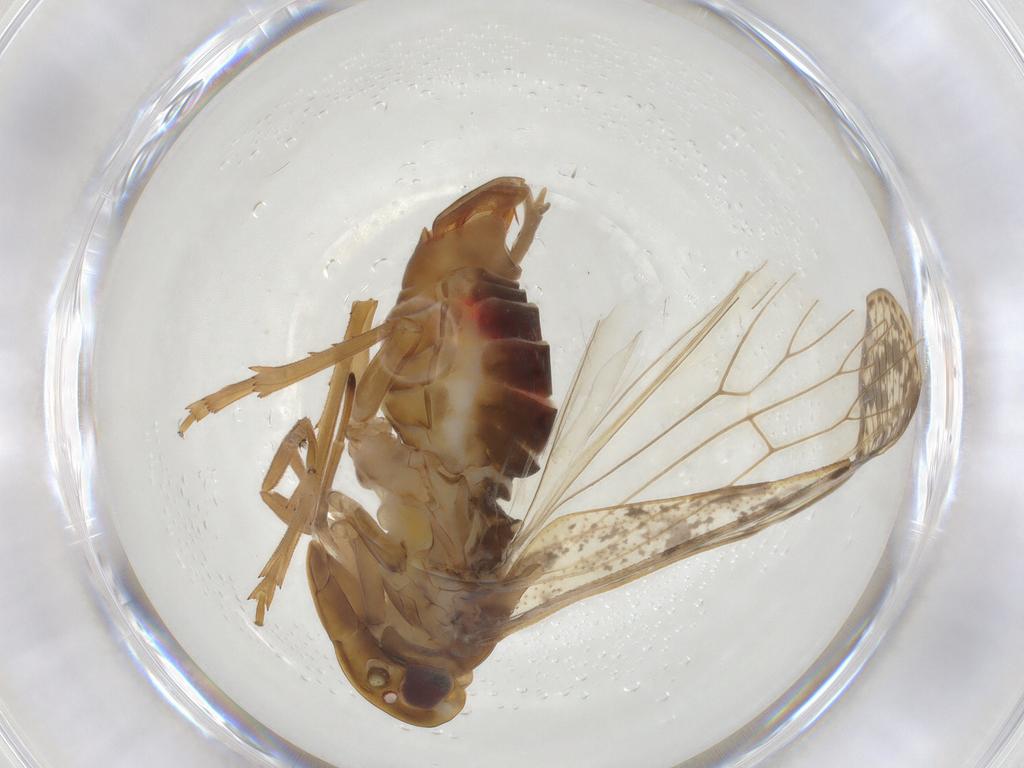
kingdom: Animalia
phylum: Arthropoda
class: Insecta
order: Hemiptera
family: Cixiidae
